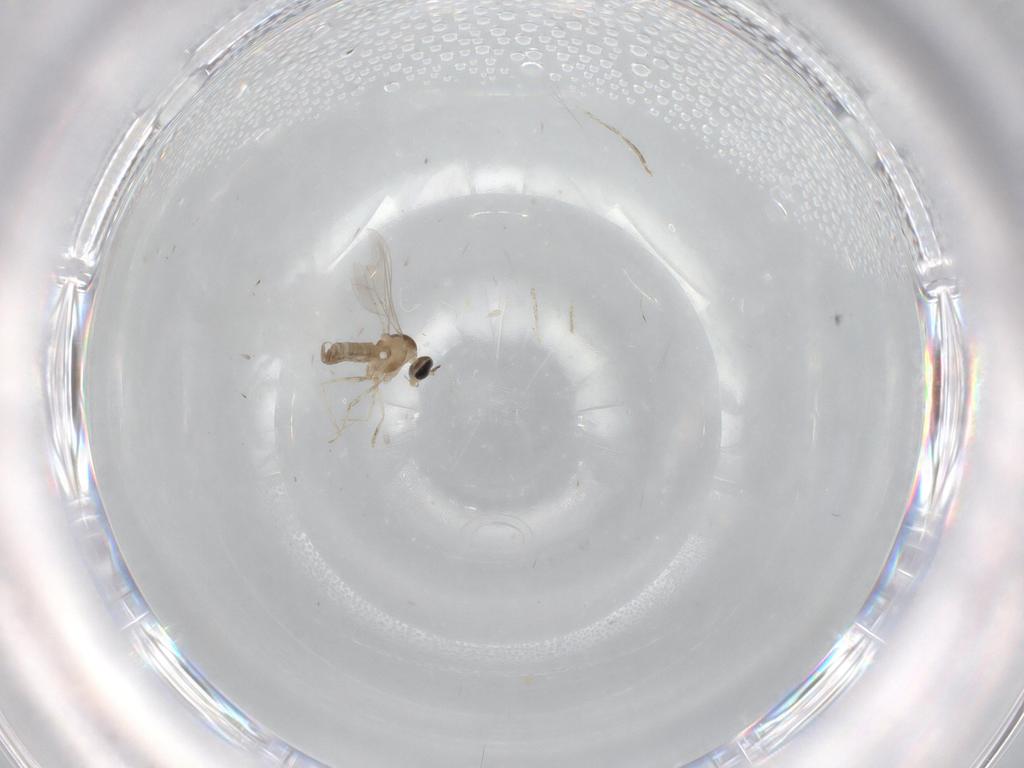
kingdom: Animalia
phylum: Arthropoda
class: Insecta
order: Diptera
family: Cecidomyiidae
